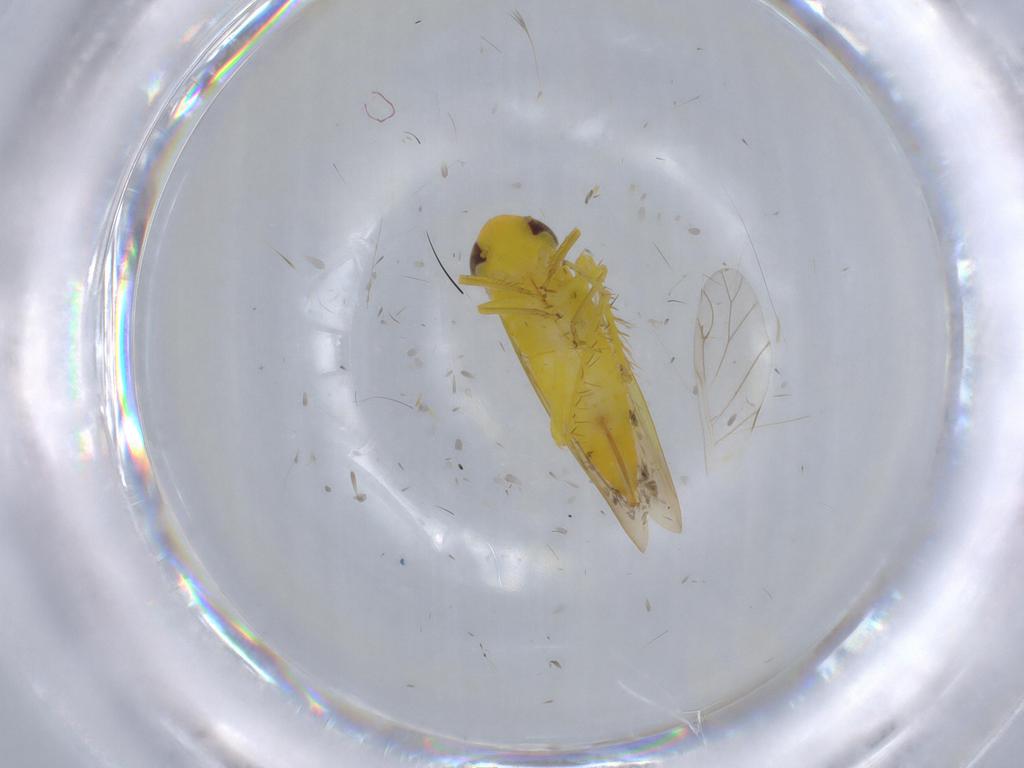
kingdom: Animalia
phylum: Arthropoda
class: Insecta
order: Hemiptera
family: Cicadellidae
